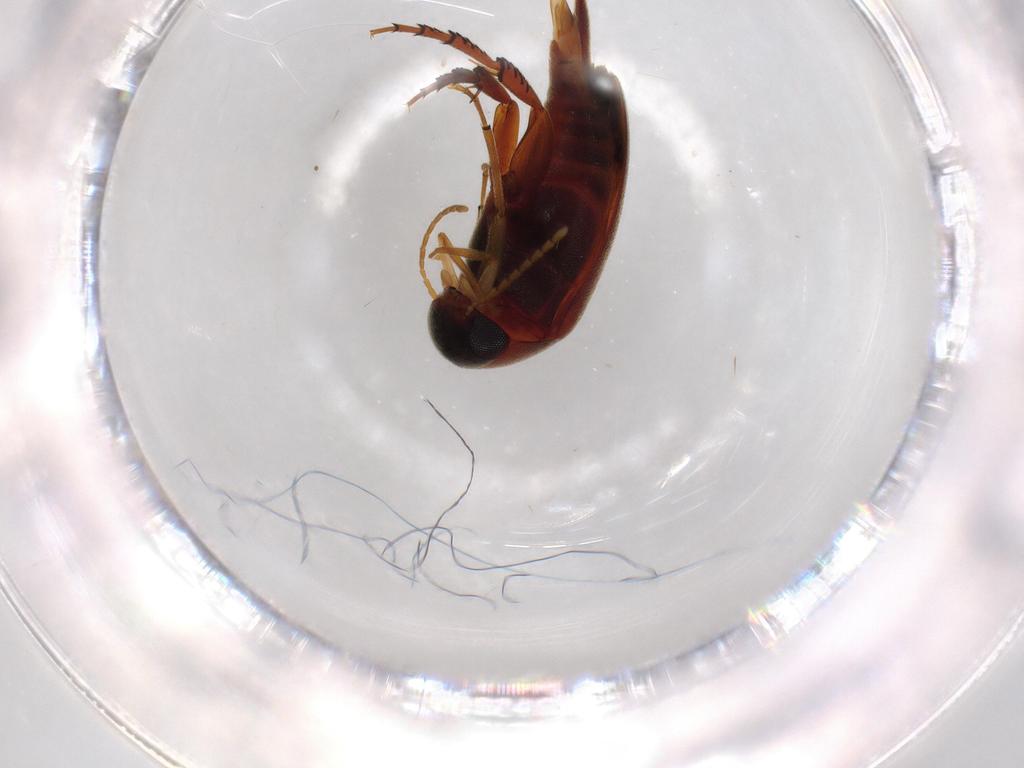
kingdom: Animalia
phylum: Arthropoda
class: Insecta
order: Coleoptera
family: Chrysomelidae
